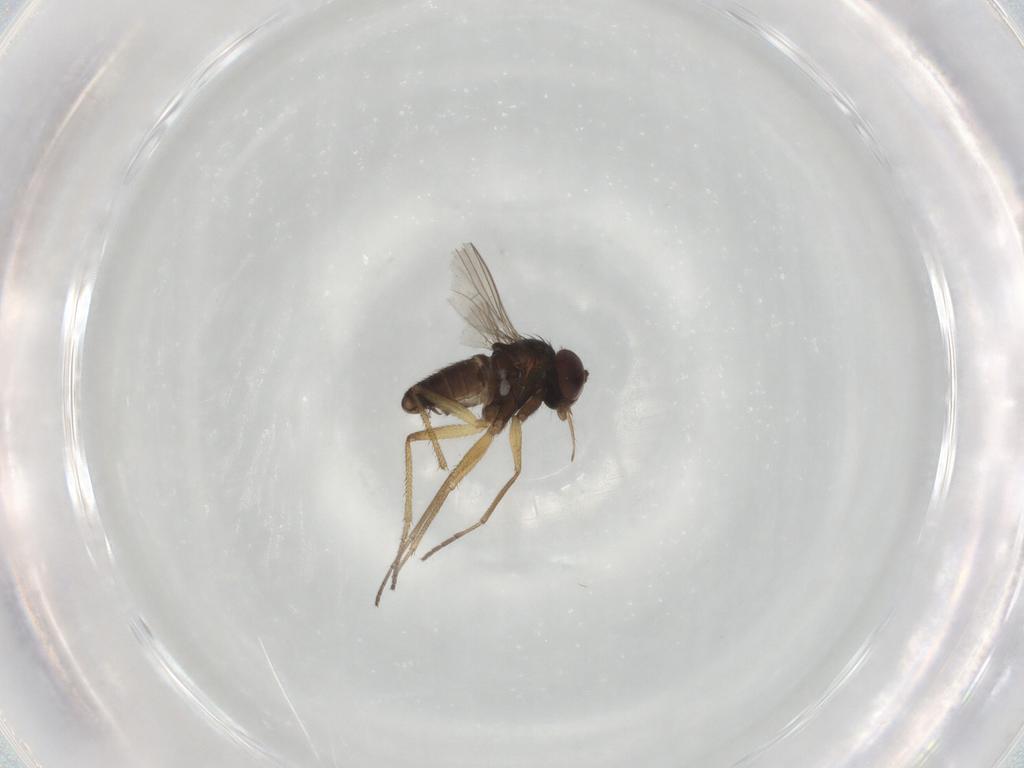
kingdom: Animalia
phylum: Arthropoda
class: Insecta
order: Diptera
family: Dolichopodidae
